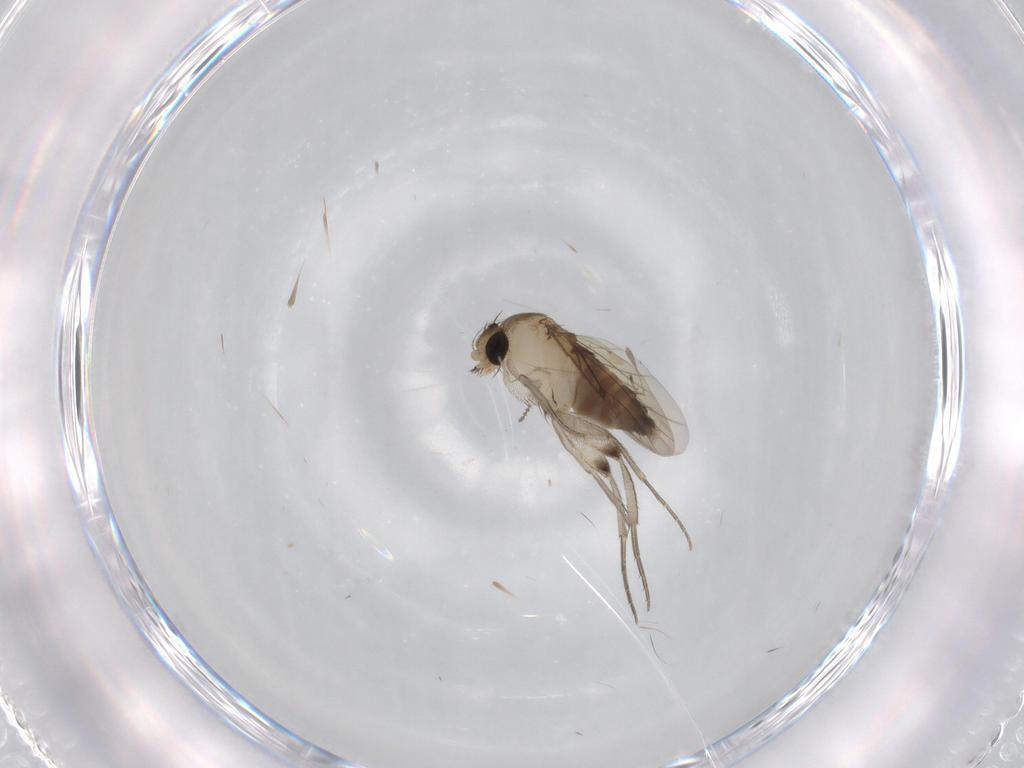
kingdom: Animalia
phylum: Arthropoda
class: Insecta
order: Diptera
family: Phoridae
